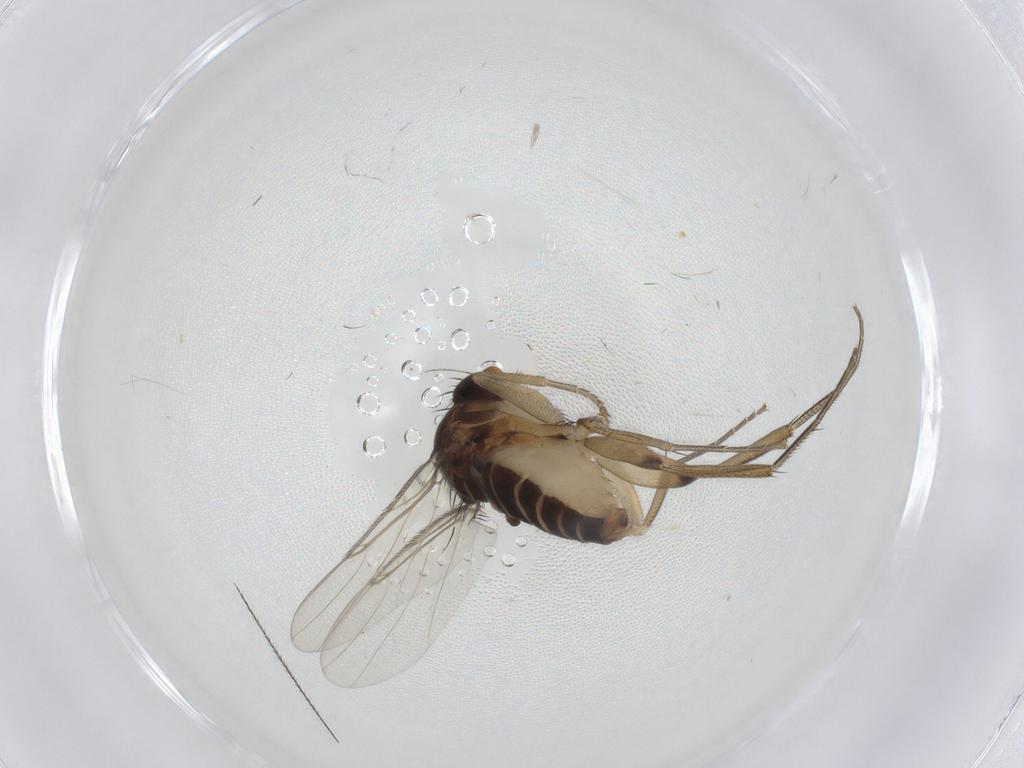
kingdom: Animalia
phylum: Arthropoda
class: Insecta
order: Diptera
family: Phoridae
